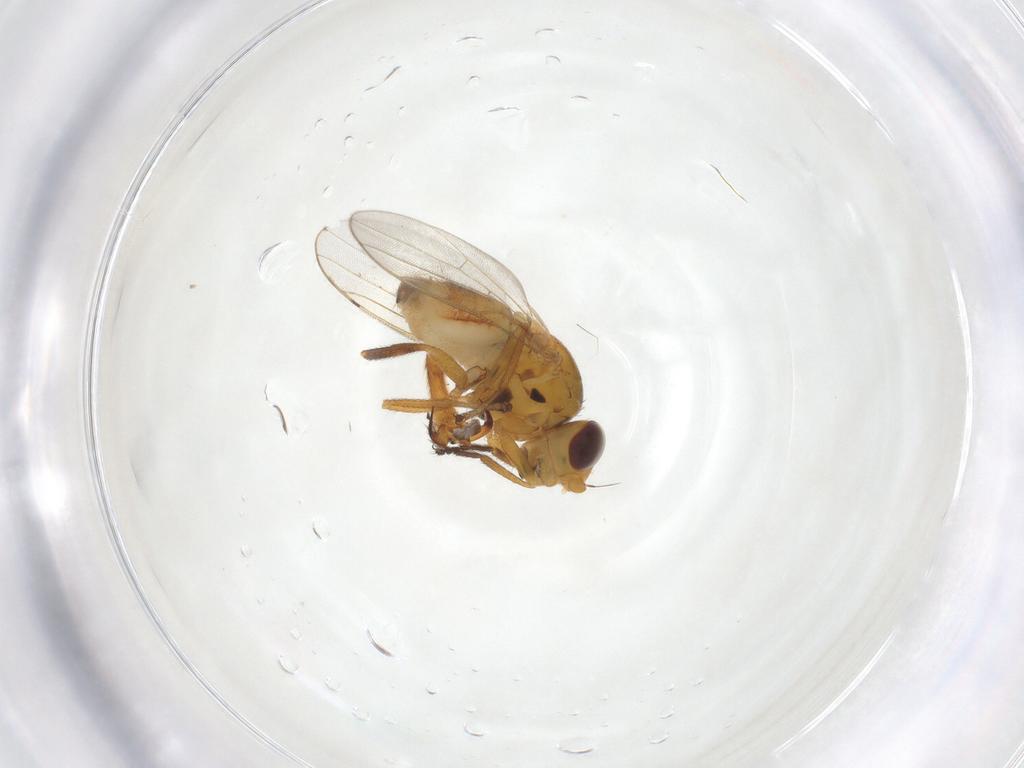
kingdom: Animalia
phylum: Arthropoda
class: Insecta
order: Diptera
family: Chloropidae
